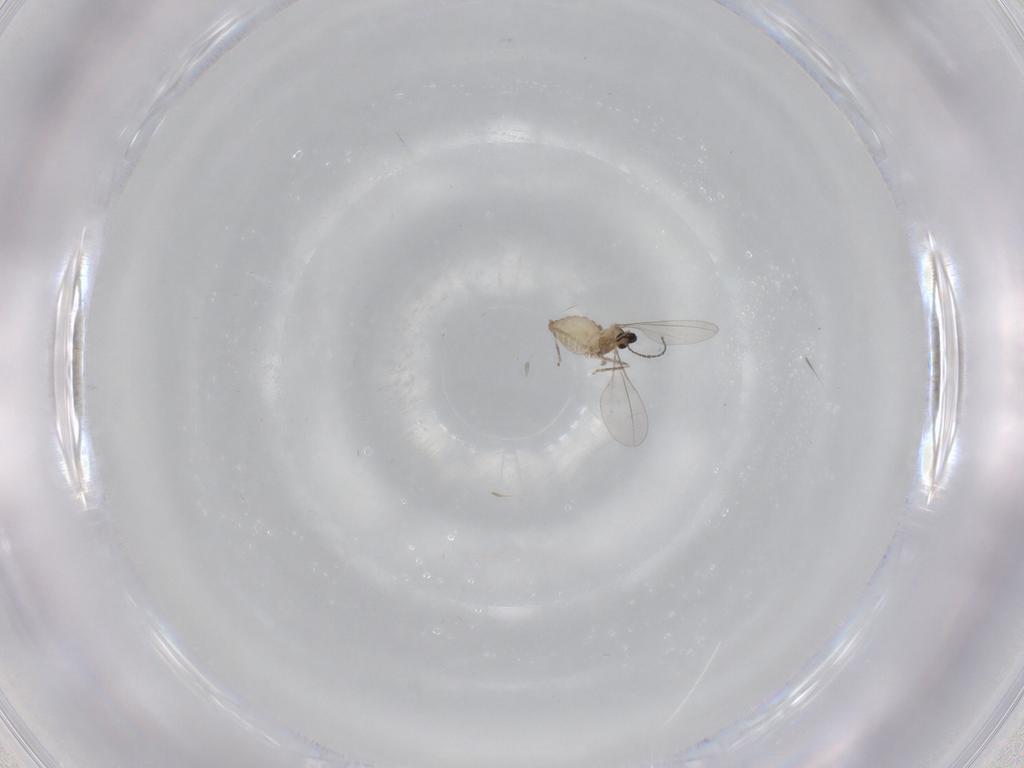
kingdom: Animalia
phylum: Arthropoda
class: Insecta
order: Diptera
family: Cecidomyiidae
